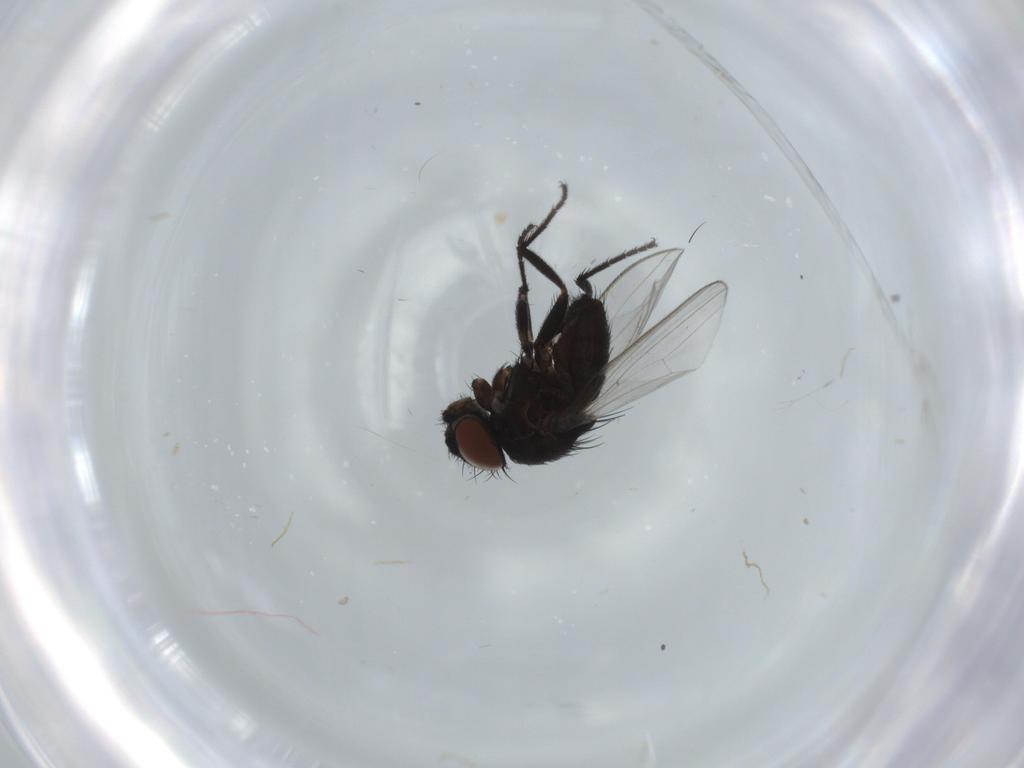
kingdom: Animalia
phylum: Arthropoda
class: Insecta
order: Diptera
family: Milichiidae
